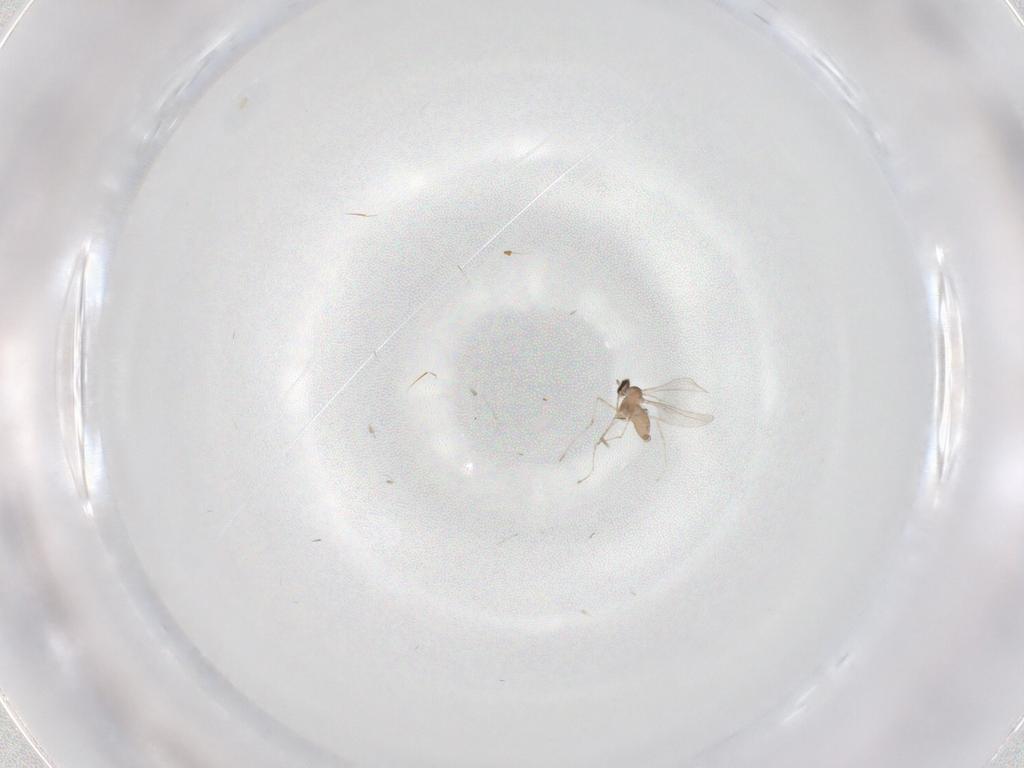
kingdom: Animalia
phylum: Arthropoda
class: Insecta
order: Diptera
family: Cecidomyiidae
